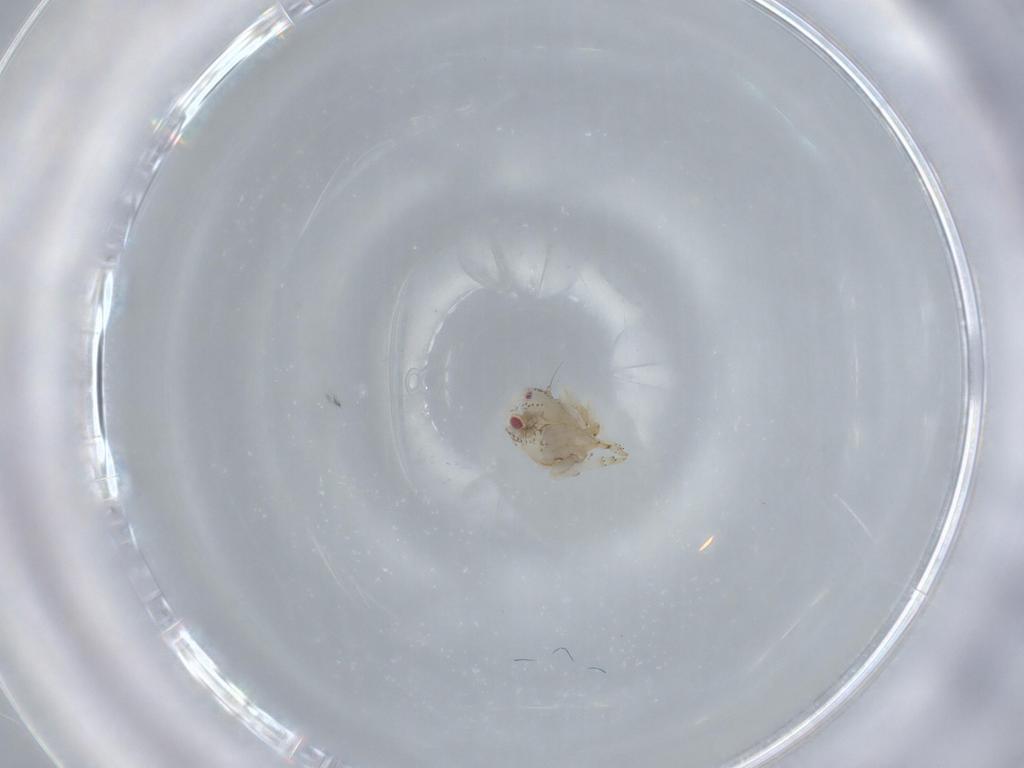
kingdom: Animalia
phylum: Arthropoda
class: Insecta
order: Hemiptera
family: Acanaloniidae
